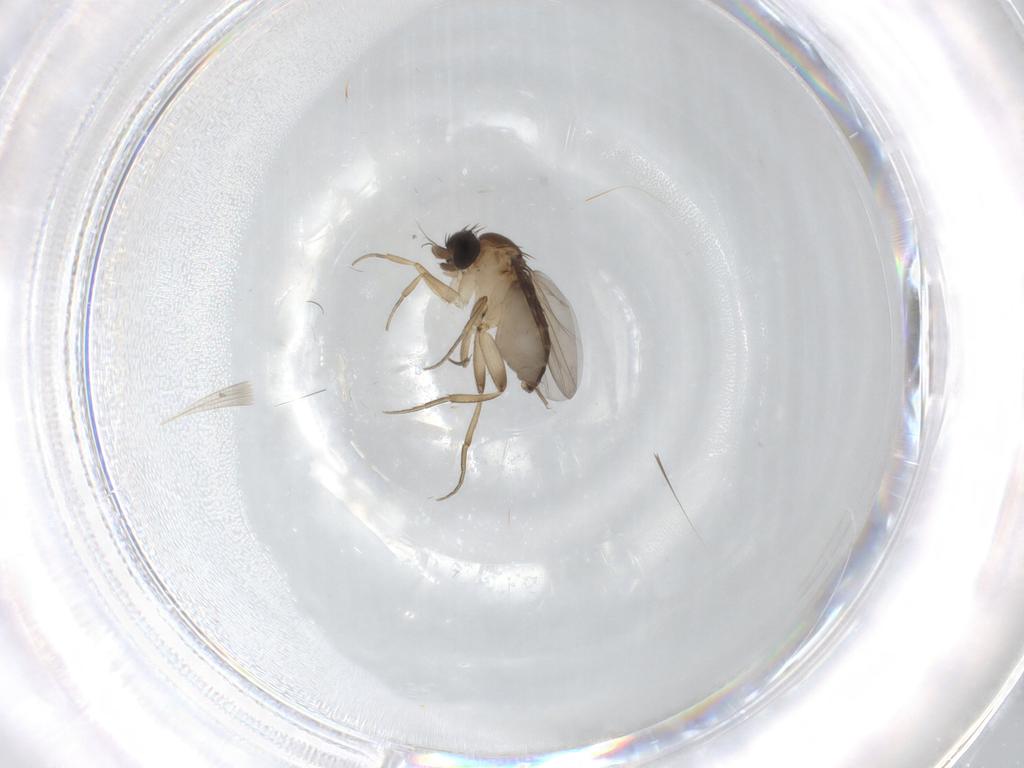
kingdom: Animalia
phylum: Arthropoda
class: Insecta
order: Diptera
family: Phoridae
